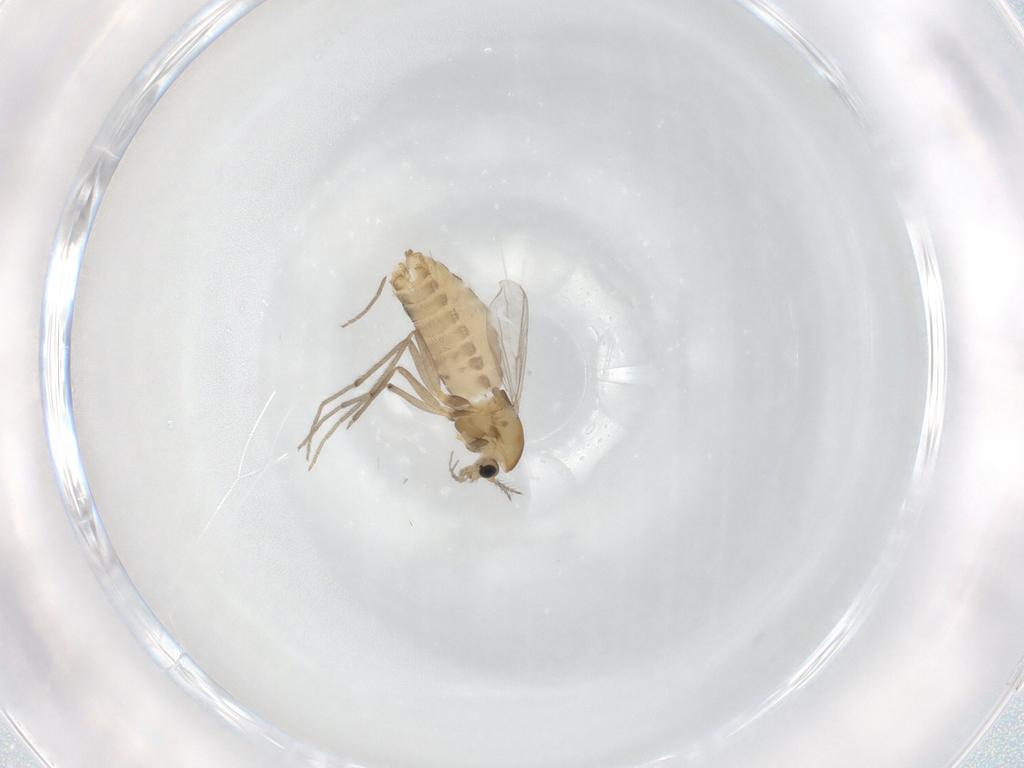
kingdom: Animalia
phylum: Arthropoda
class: Insecta
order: Diptera
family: Chironomidae
